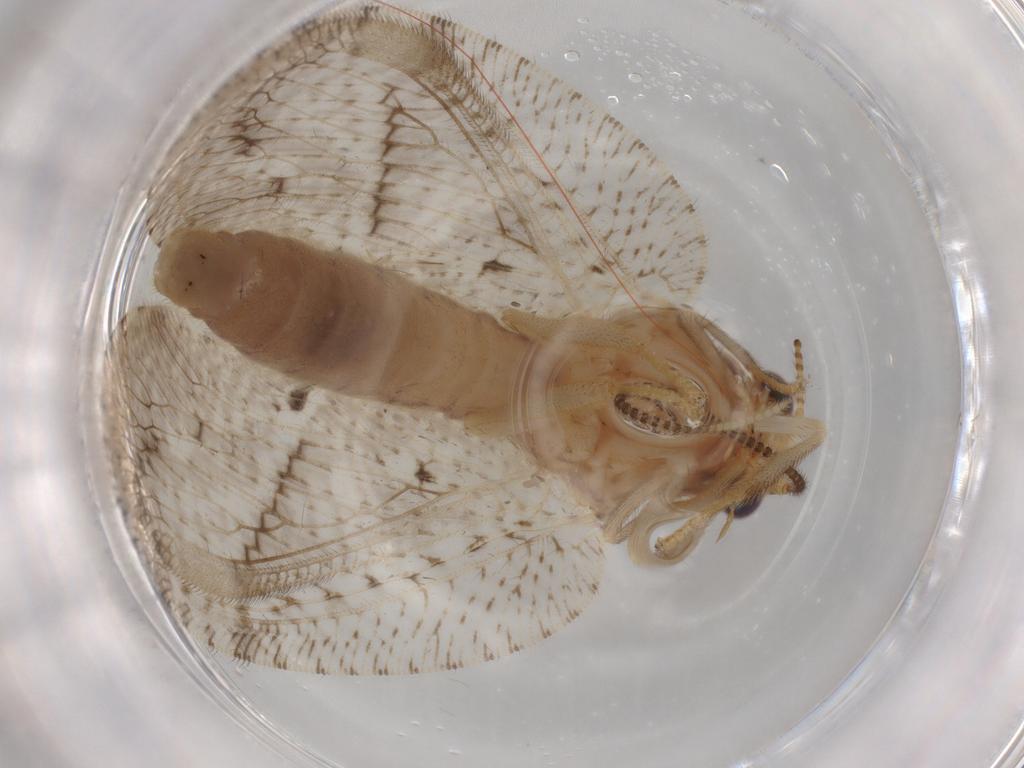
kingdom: Animalia
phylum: Arthropoda
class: Insecta
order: Neuroptera
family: Hemerobiidae
